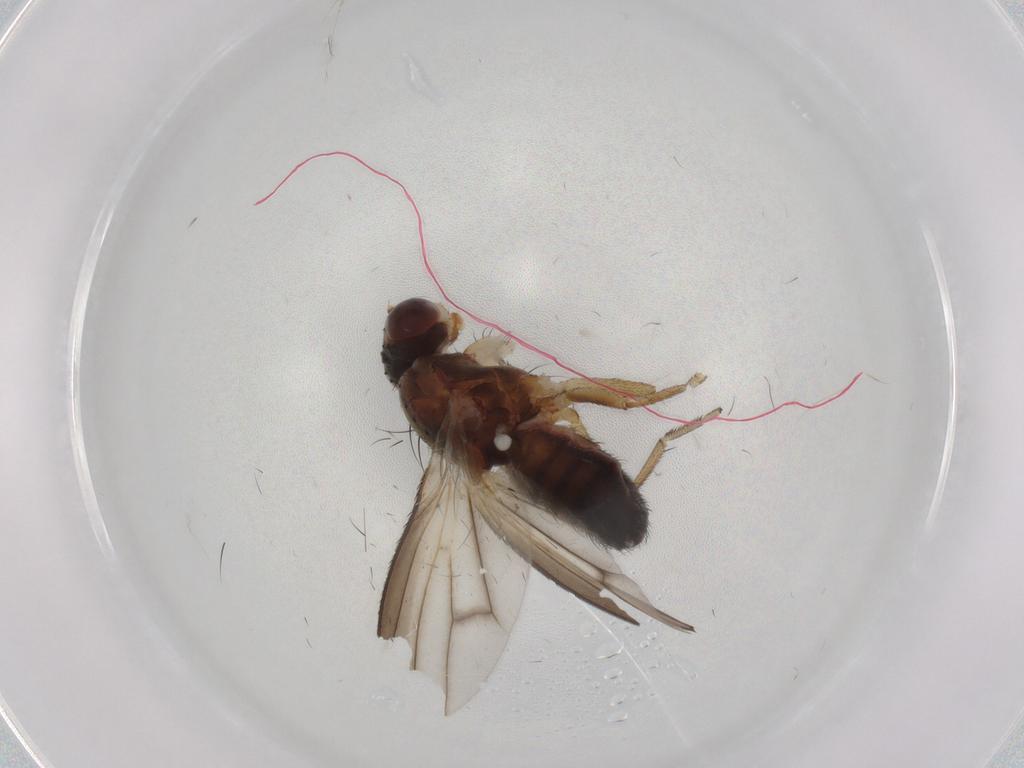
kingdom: Animalia
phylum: Arthropoda
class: Insecta
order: Diptera
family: Heleomyzidae
